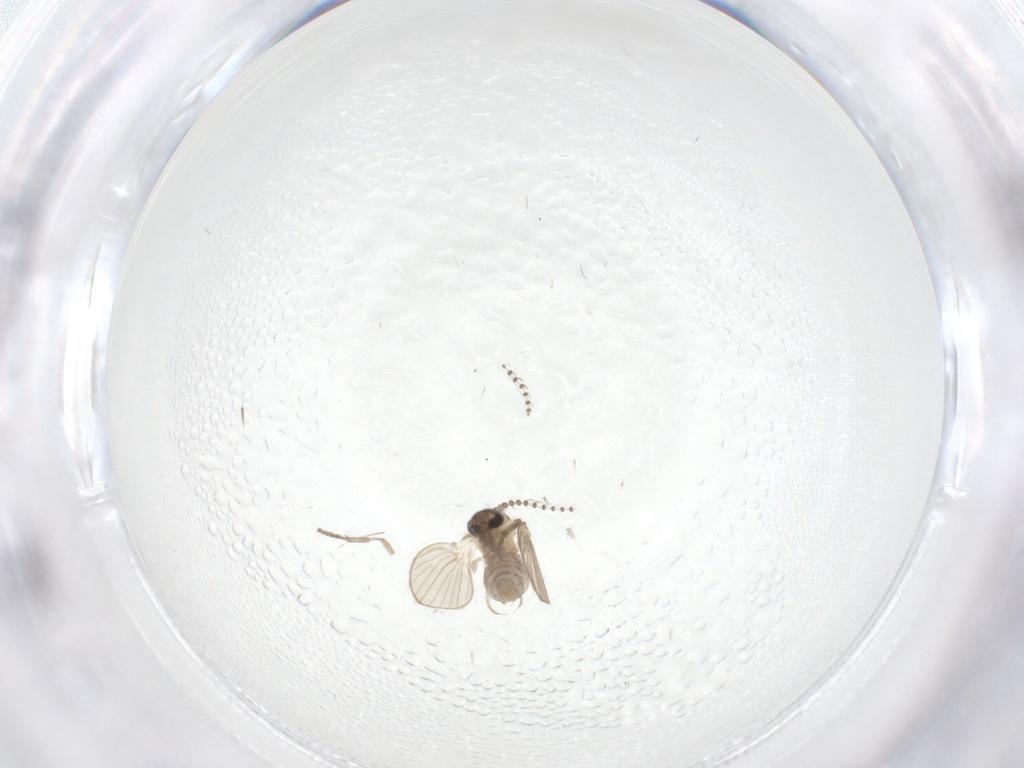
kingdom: Animalia
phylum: Arthropoda
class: Insecta
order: Diptera
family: Psychodidae
